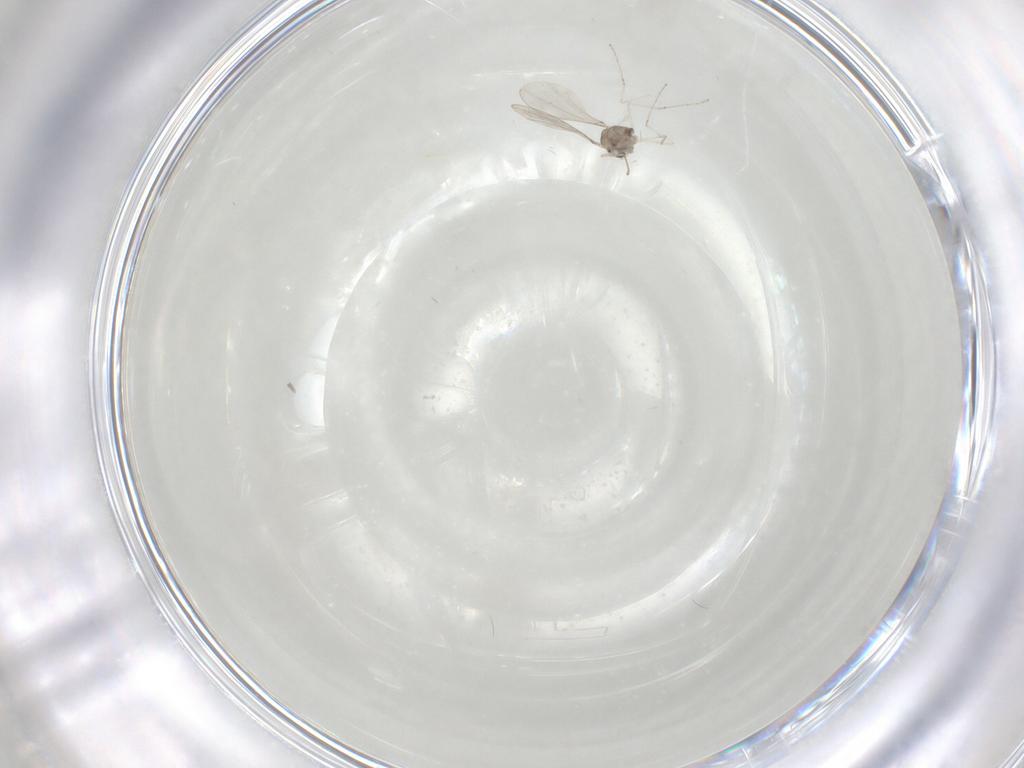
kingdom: Animalia
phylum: Arthropoda
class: Insecta
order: Diptera
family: Cecidomyiidae
